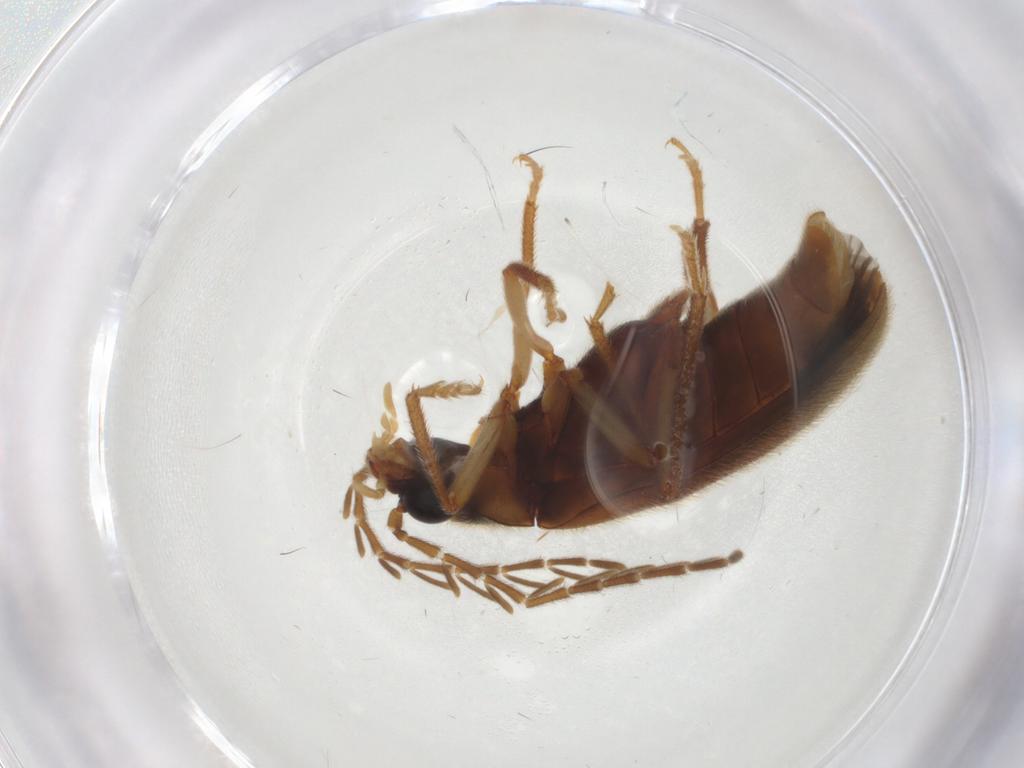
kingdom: Animalia
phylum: Arthropoda
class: Insecta
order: Coleoptera
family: Ptilodactylidae
